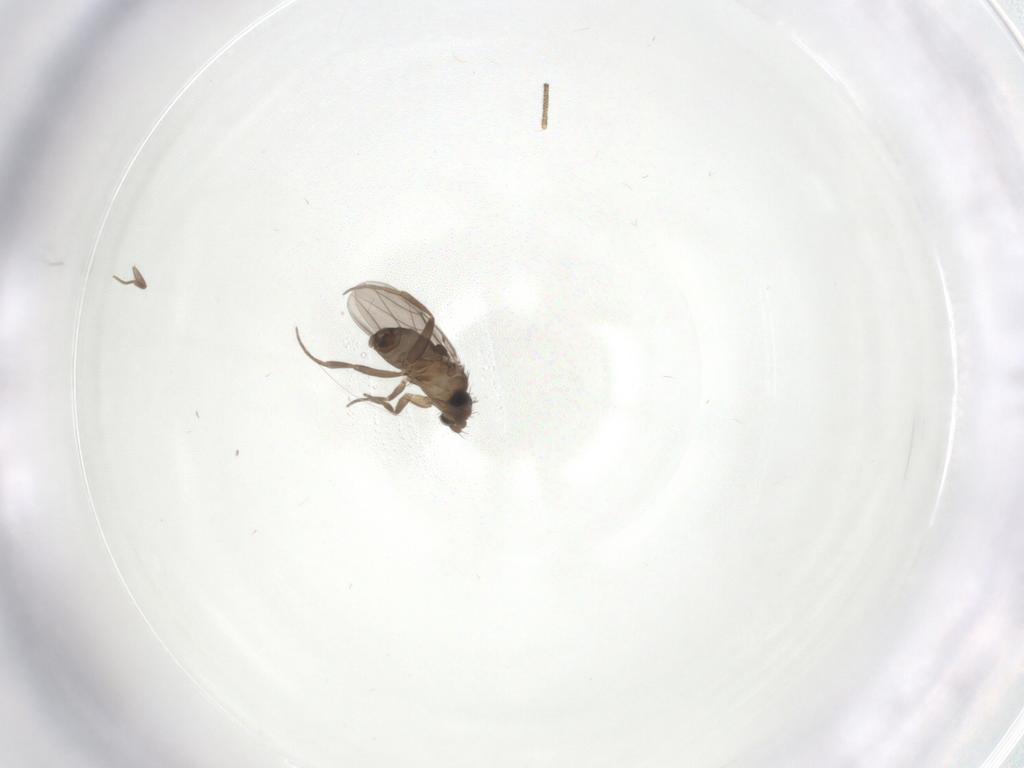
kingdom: Animalia
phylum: Arthropoda
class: Insecta
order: Diptera
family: Phoridae
